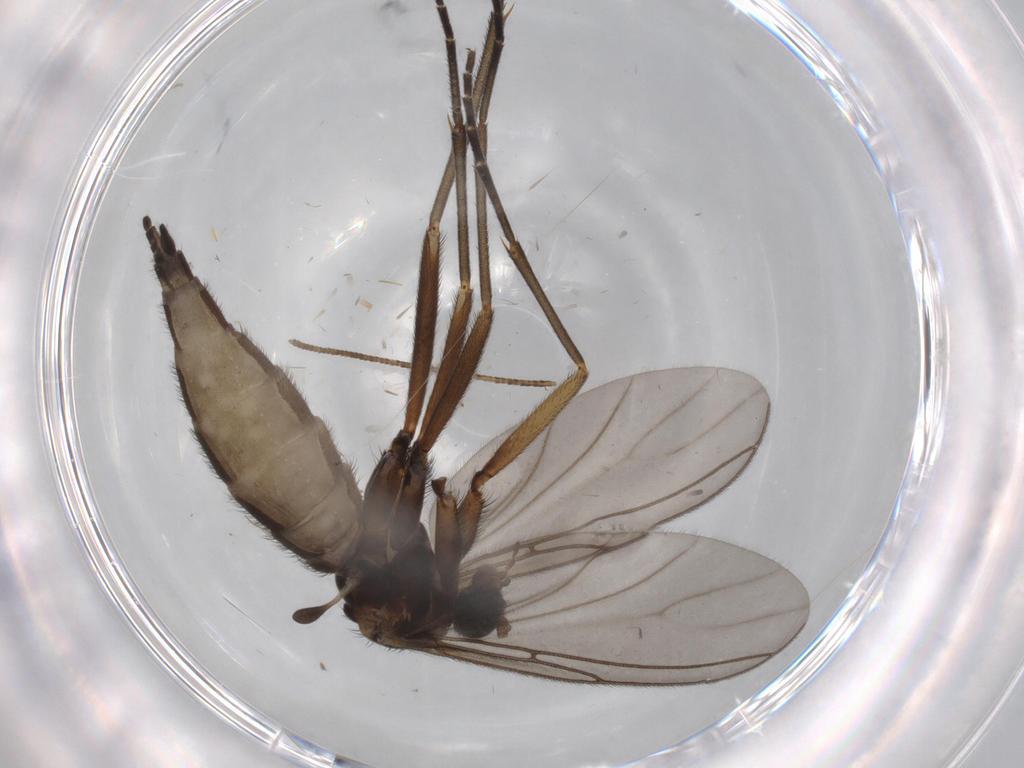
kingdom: Animalia
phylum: Arthropoda
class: Insecta
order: Diptera
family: Sciaridae
